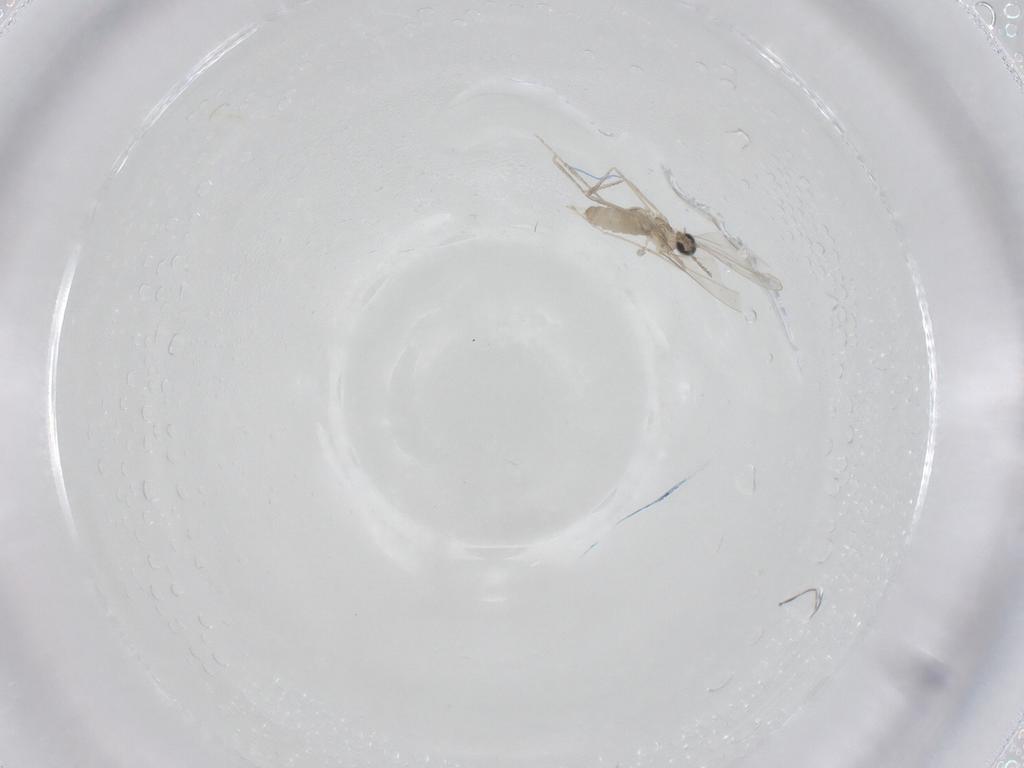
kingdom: Animalia
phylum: Arthropoda
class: Insecta
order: Diptera
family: Cecidomyiidae
